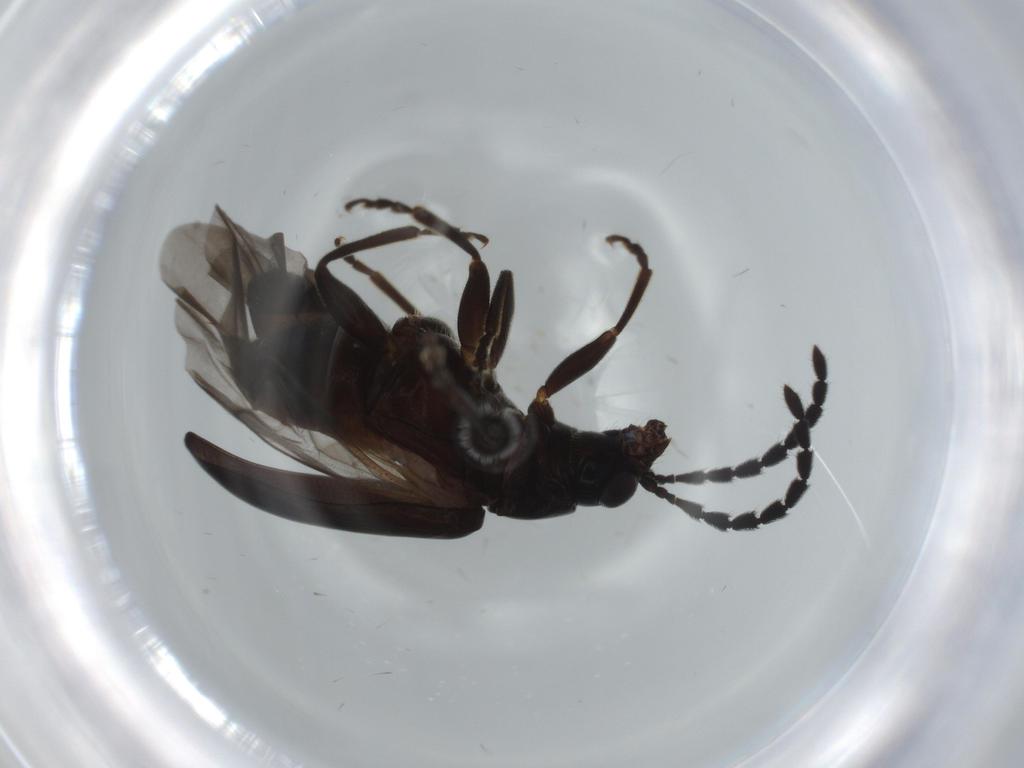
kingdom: Animalia
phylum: Arthropoda
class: Insecta
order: Coleoptera
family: Chrysomelidae
